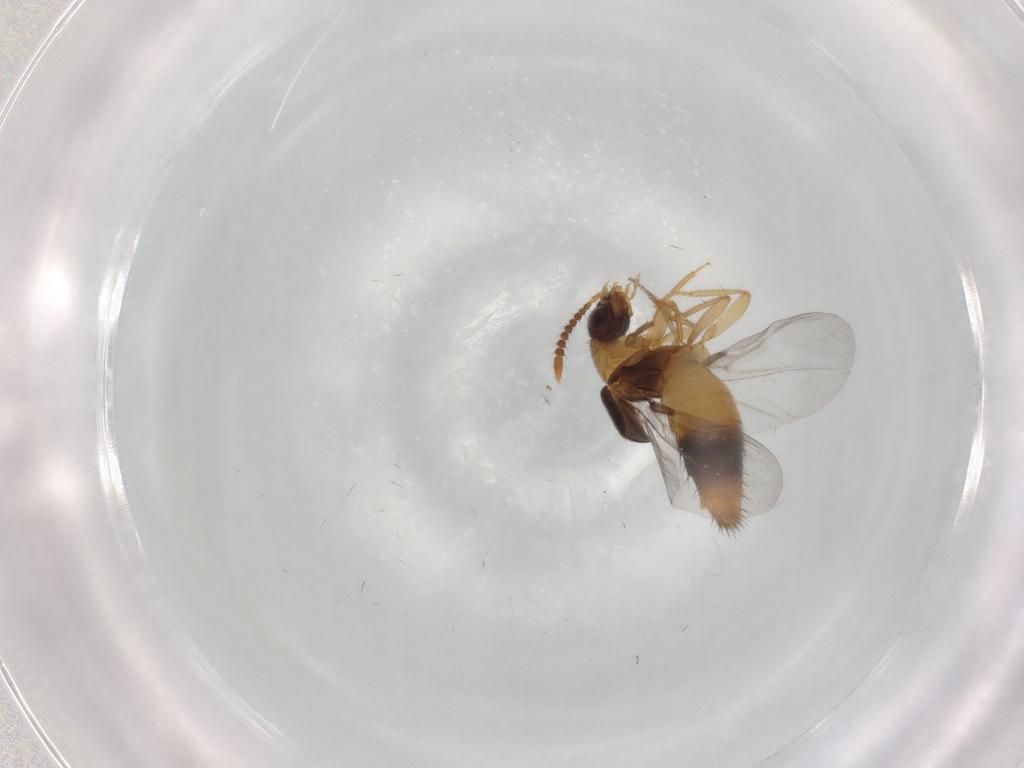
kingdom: Animalia
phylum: Arthropoda
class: Insecta
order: Coleoptera
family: Staphylinidae
